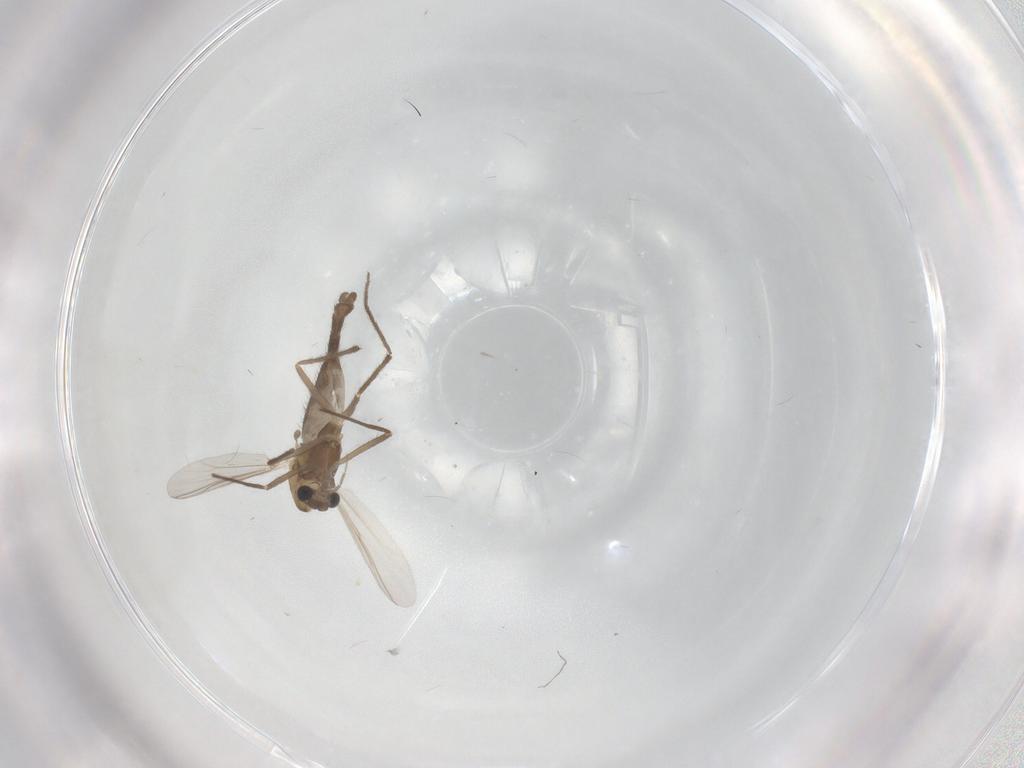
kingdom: Animalia
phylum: Arthropoda
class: Insecta
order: Diptera
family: Chironomidae
